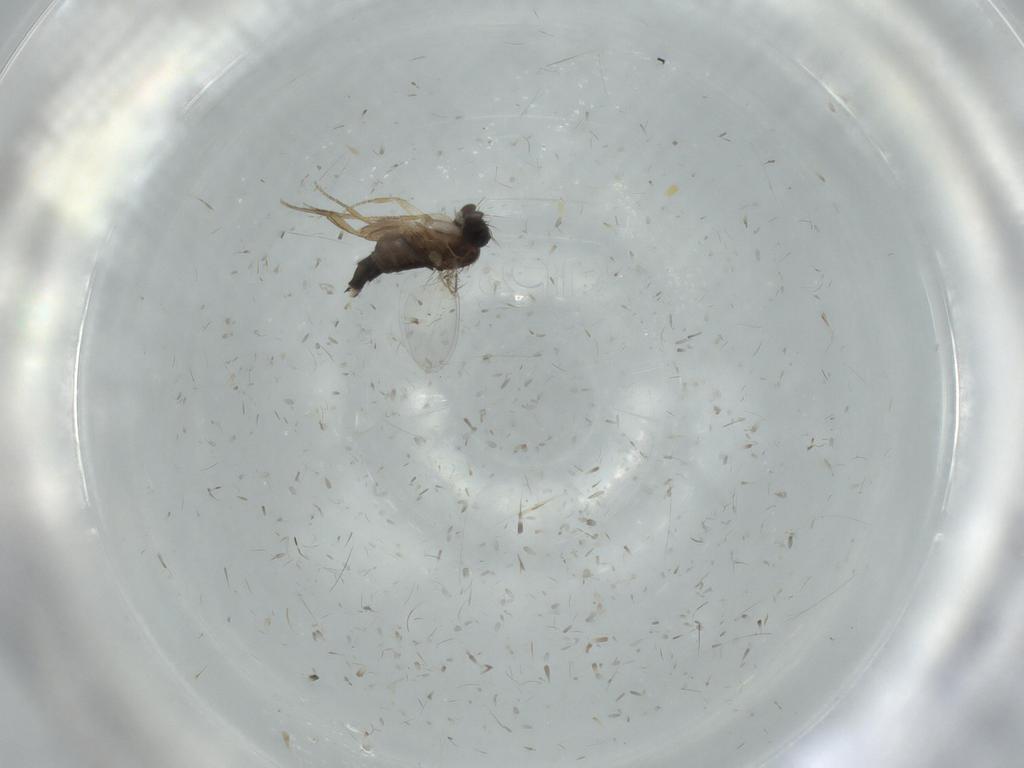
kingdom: Animalia
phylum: Arthropoda
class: Insecta
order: Diptera
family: Phoridae
